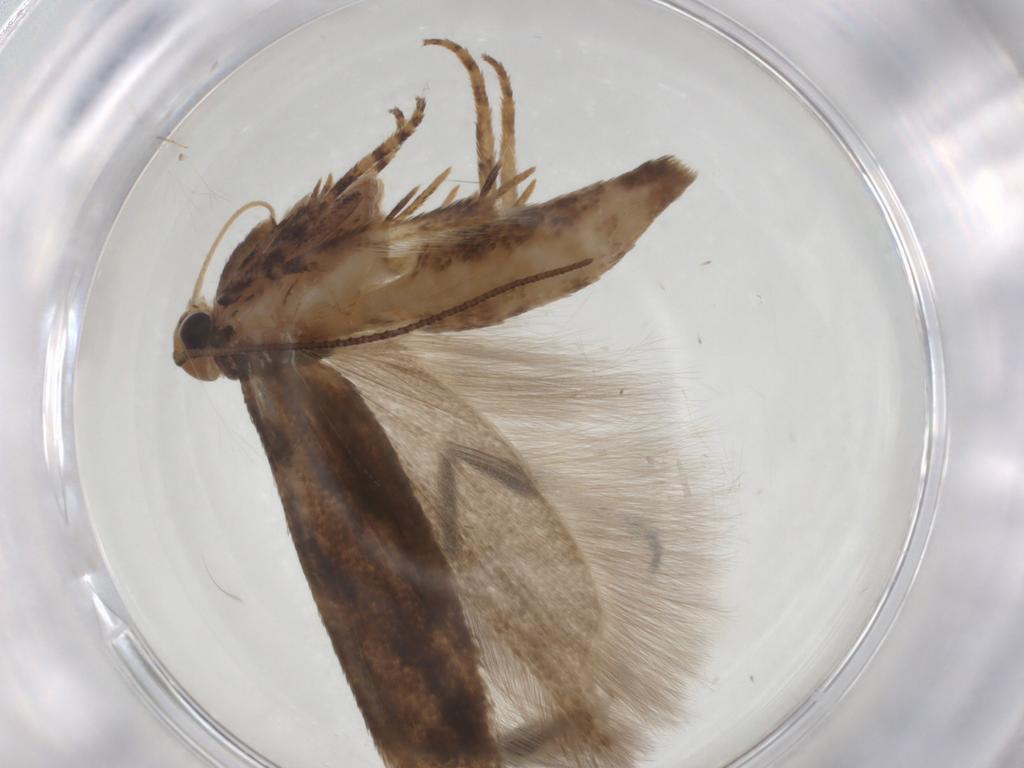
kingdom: Animalia
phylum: Arthropoda
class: Insecta
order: Lepidoptera
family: Gelechiidae
